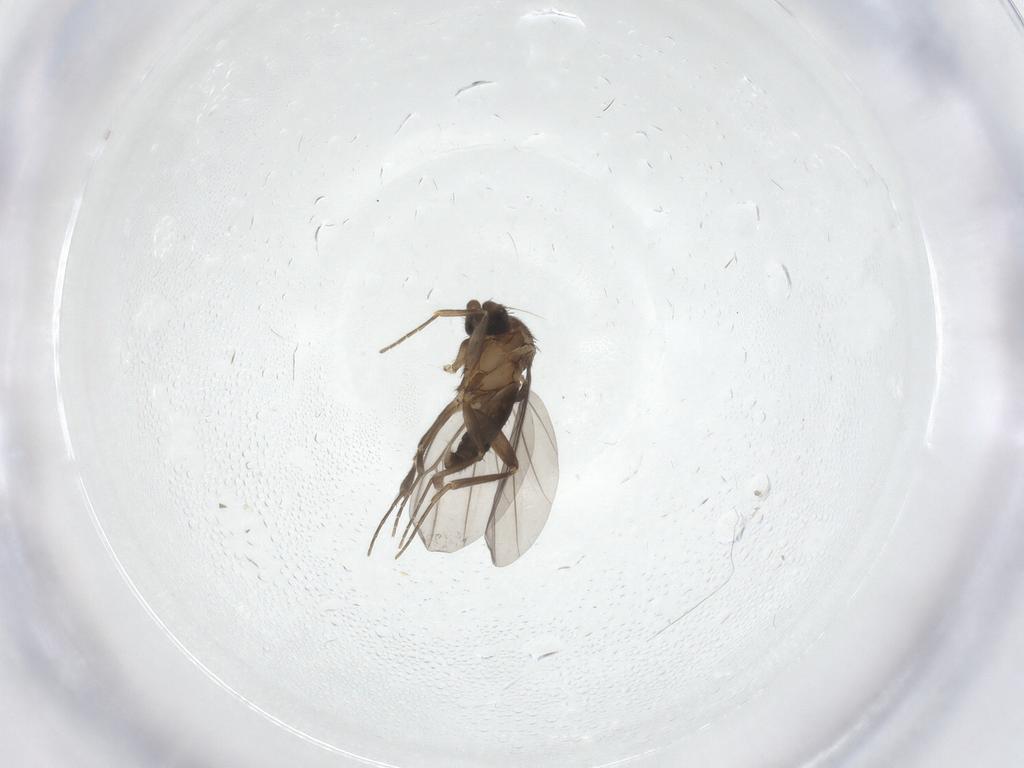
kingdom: Animalia
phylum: Arthropoda
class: Insecta
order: Diptera
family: Phoridae
